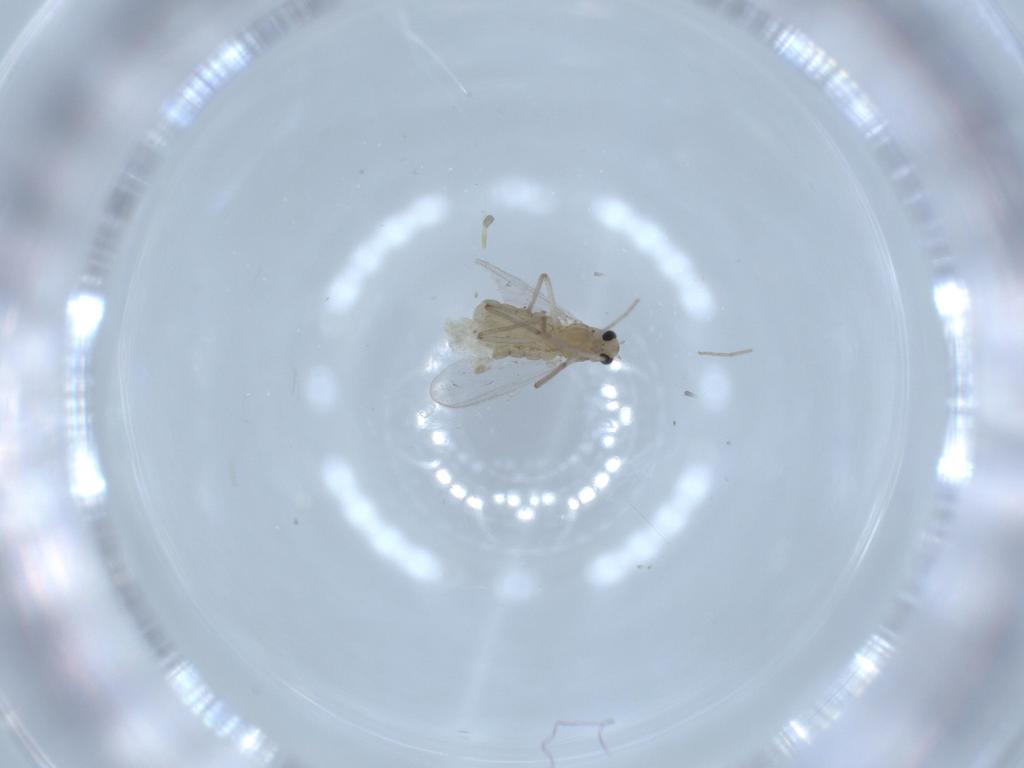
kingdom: Animalia
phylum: Arthropoda
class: Insecta
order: Diptera
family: Chironomidae
